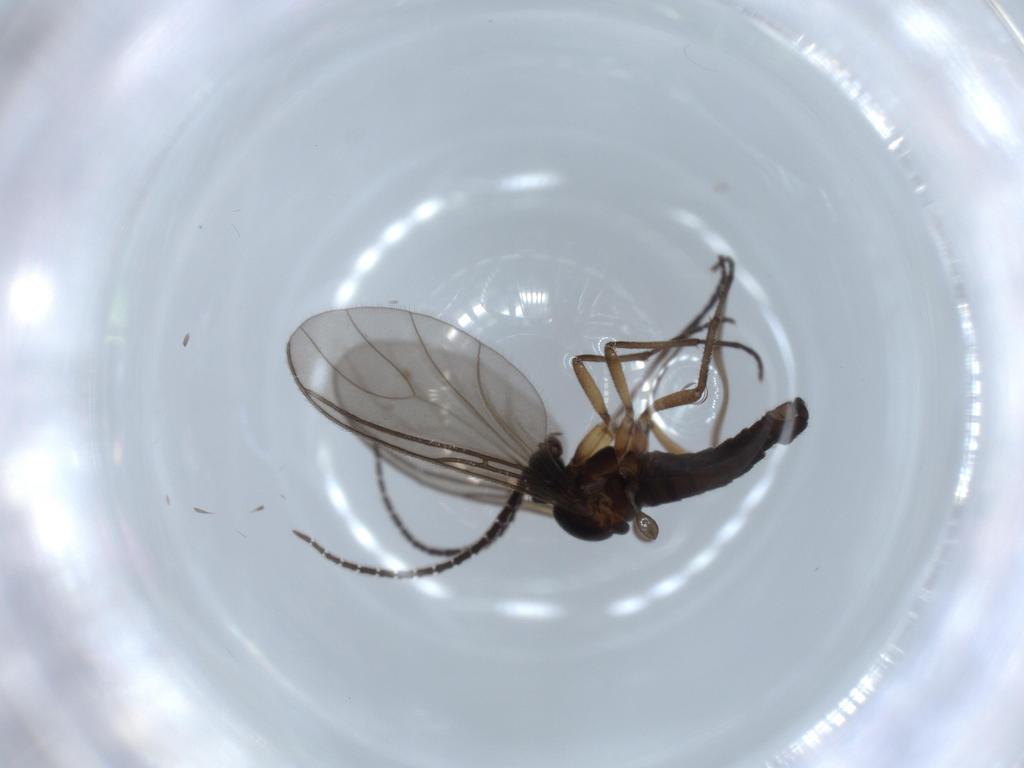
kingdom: Animalia
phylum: Arthropoda
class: Insecta
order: Diptera
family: Sciaridae
